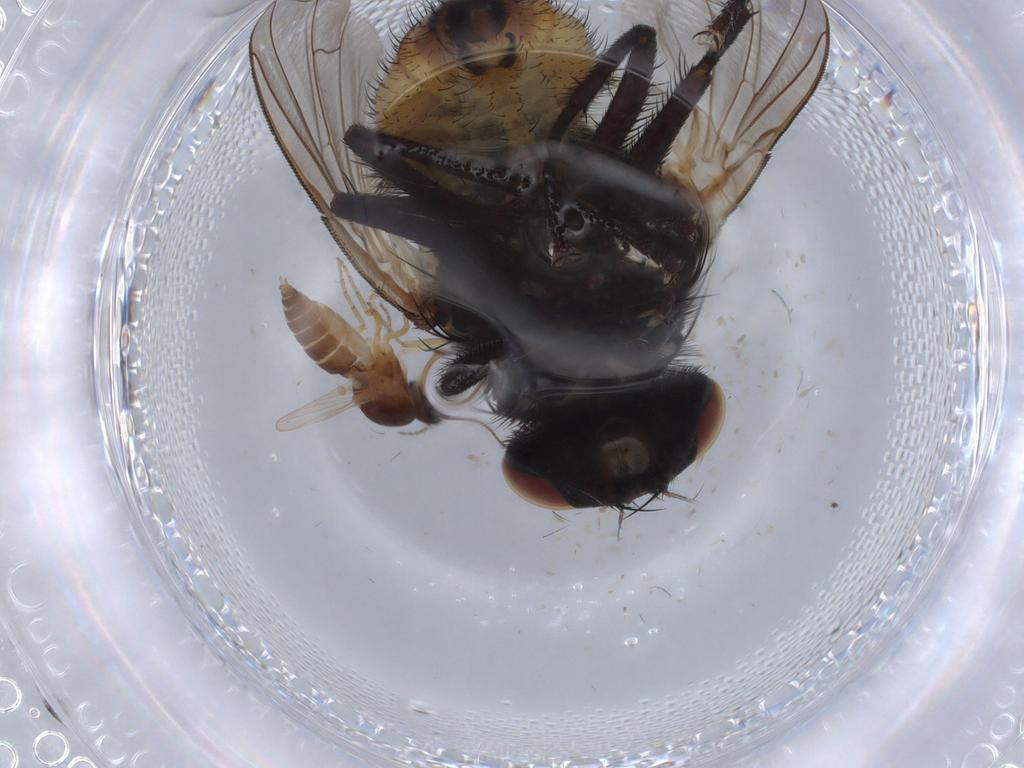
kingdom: Animalia
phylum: Arthropoda
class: Insecta
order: Diptera
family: Muscidae
